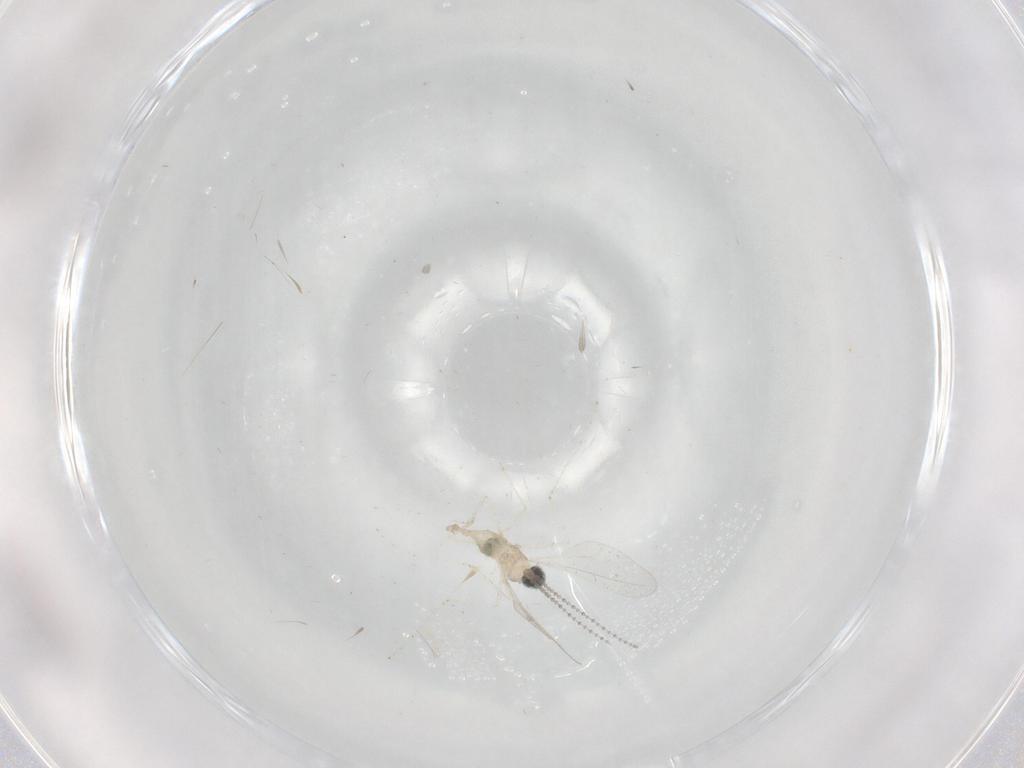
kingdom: Animalia
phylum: Arthropoda
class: Insecta
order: Diptera
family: Cecidomyiidae
